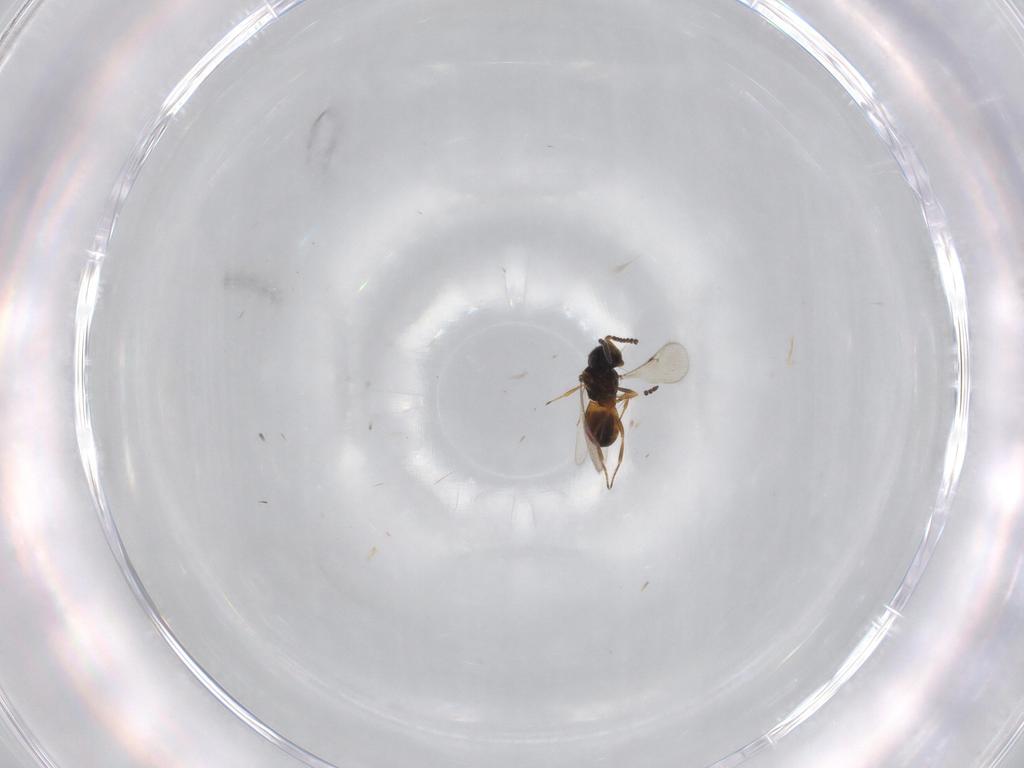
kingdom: Animalia
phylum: Arthropoda
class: Insecta
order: Hymenoptera
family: Scelionidae
